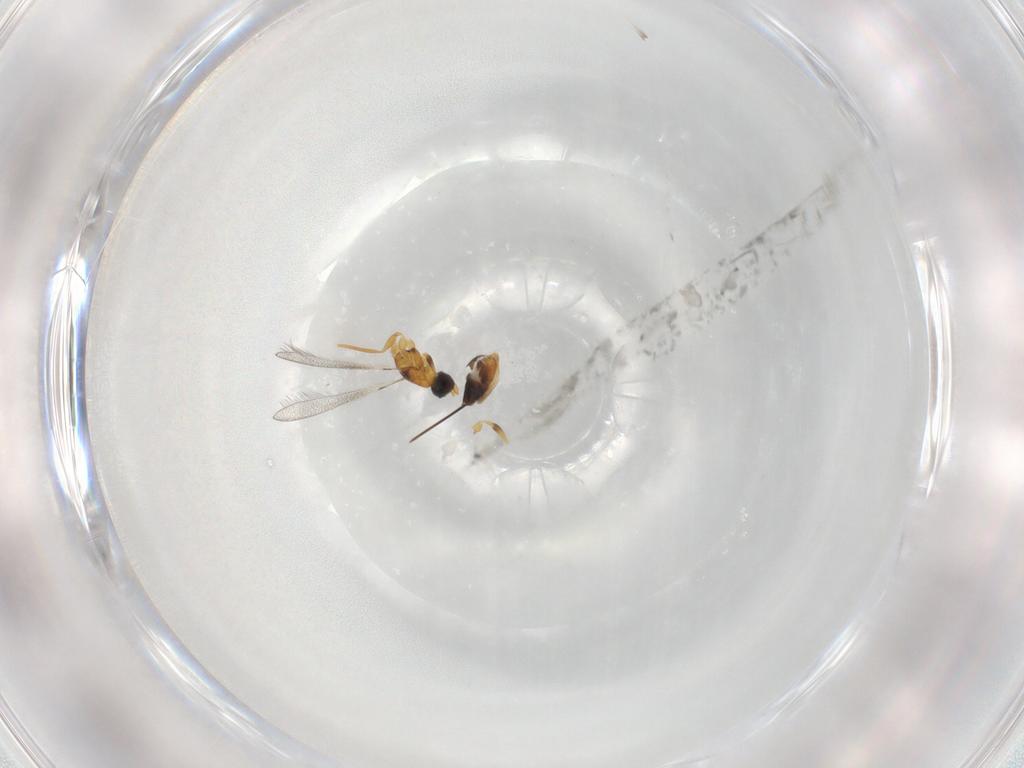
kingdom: Animalia
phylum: Arthropoda
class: Insecta
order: Hymenoptera
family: Mymaridae
